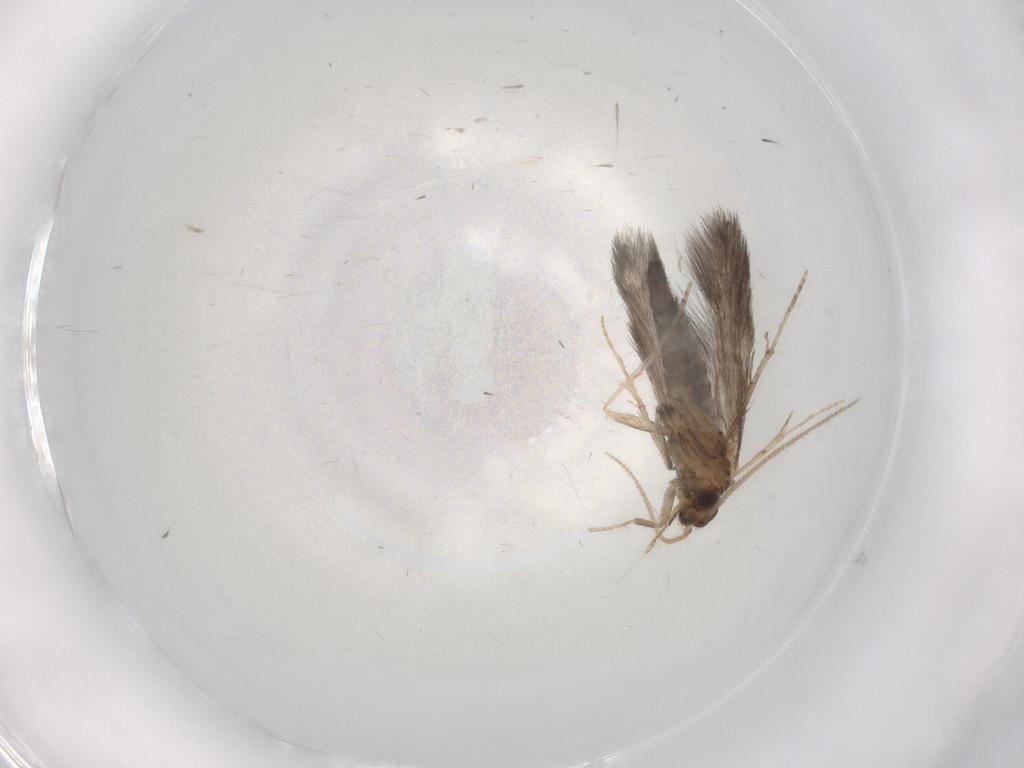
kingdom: Animalia
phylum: Arthropoda
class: Insecta
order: Trichoptera
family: Hydroptilidae
